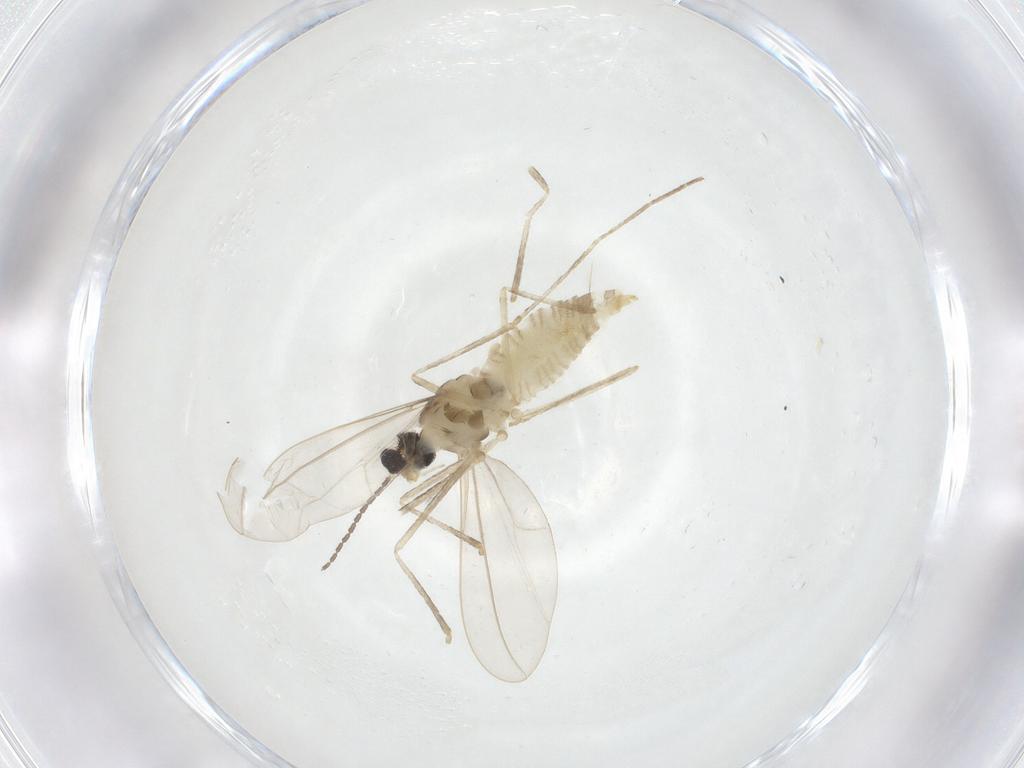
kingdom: Animalia
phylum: Arthropoda
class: Insecta
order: Diptera
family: Cecidomyiidae
